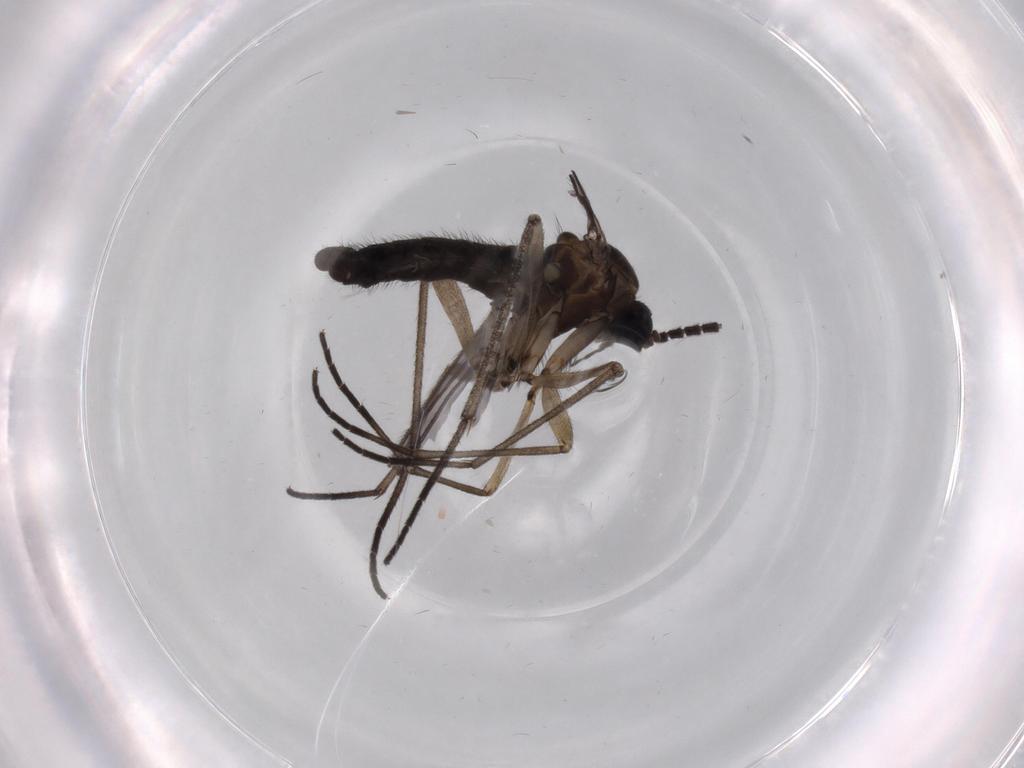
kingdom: Animalia
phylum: Arthropoda
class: Insecta
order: Diptera
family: Sciaridae
